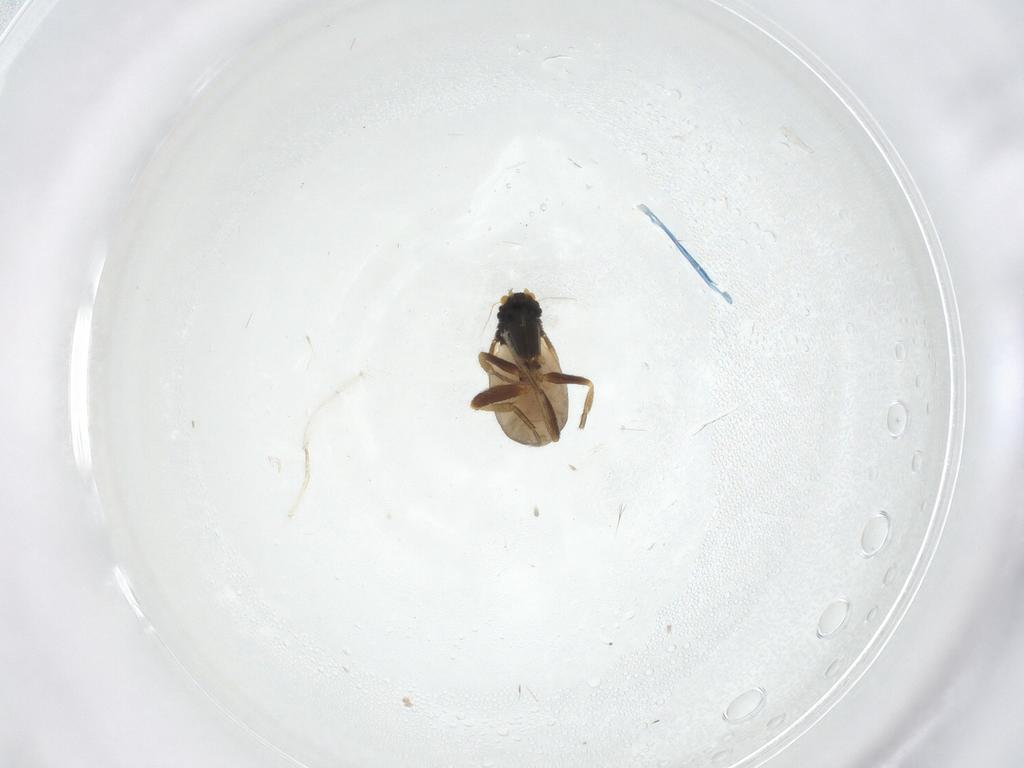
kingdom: Animalia
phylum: Arthropoda
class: Insecta
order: Diptera
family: Phoridae
